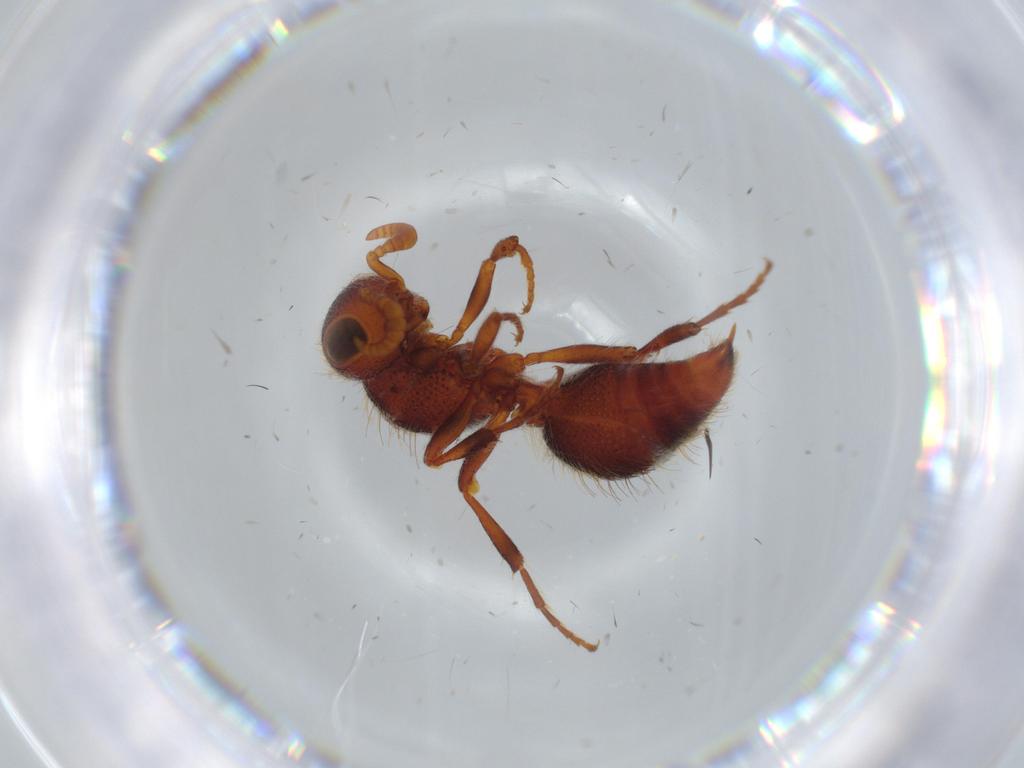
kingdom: Animalia
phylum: Arthropoda
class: Insecta
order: Hymenoptera
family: Crabronidae
